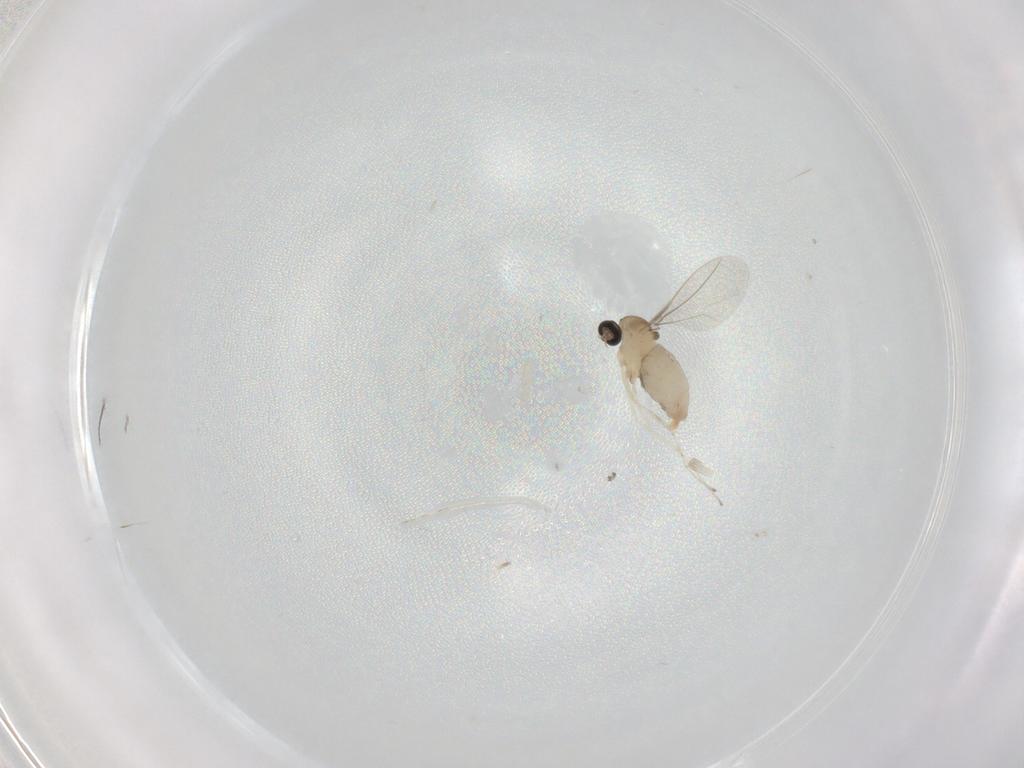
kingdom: Animalia
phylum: Arthropoda
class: Insecta
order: Diptera
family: Cecidomyiidae
